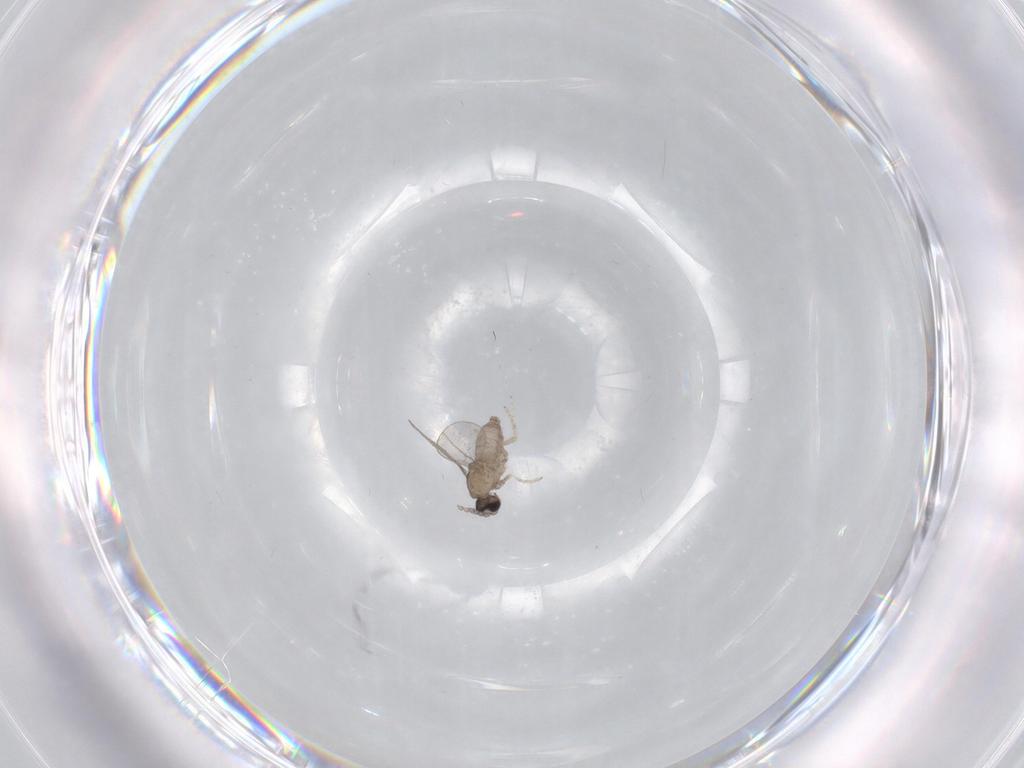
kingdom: Animalia
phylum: Arthropoda
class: Insecta
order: Diptera
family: Cecidomyiidae
